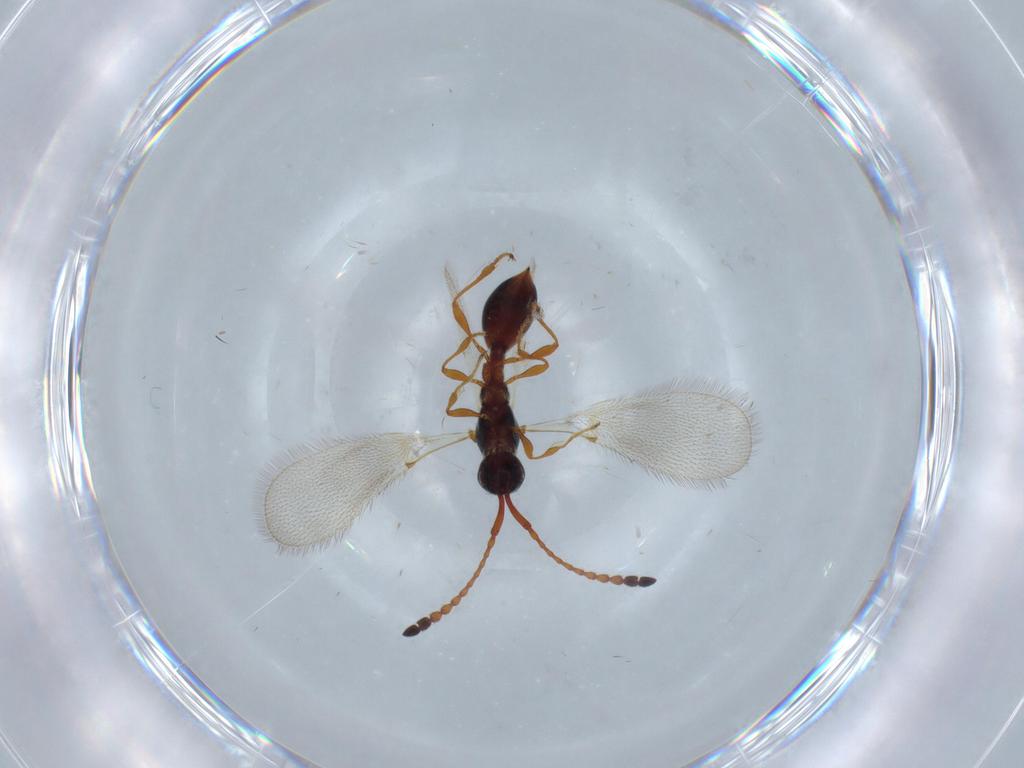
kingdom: Animalia
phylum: Arthropoda
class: Insecta
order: Hymenoptera
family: Diapriidae
